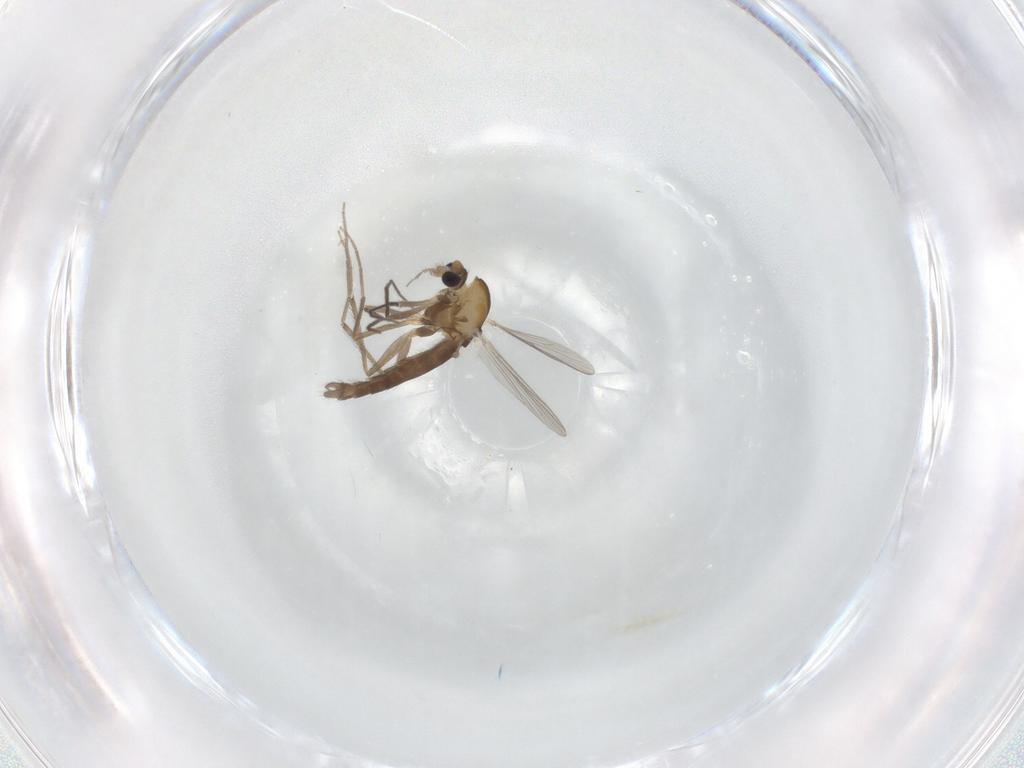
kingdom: Animalia
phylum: Arthropoda
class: Insecta
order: Diptera
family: Chironomidae
